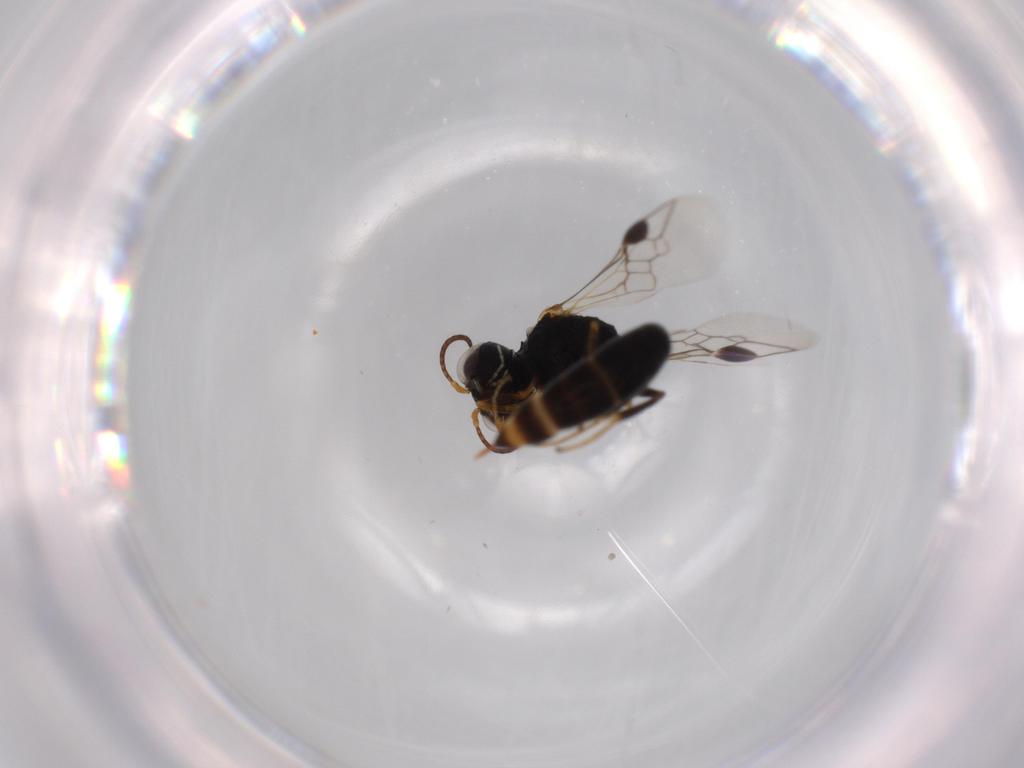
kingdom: Animalia
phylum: Arthropoda
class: Insecta
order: Hymenoptera
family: Pemphredonidae
